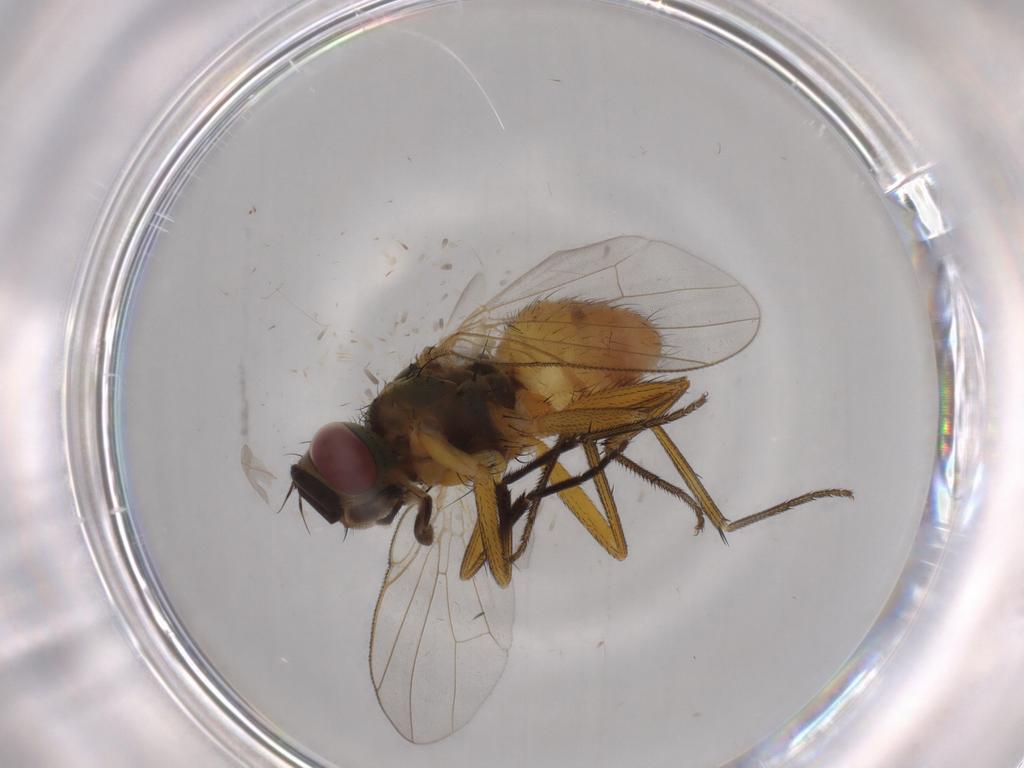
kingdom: Animalia
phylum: Arthropoda
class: Insecta
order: Diptera
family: Muscidae
